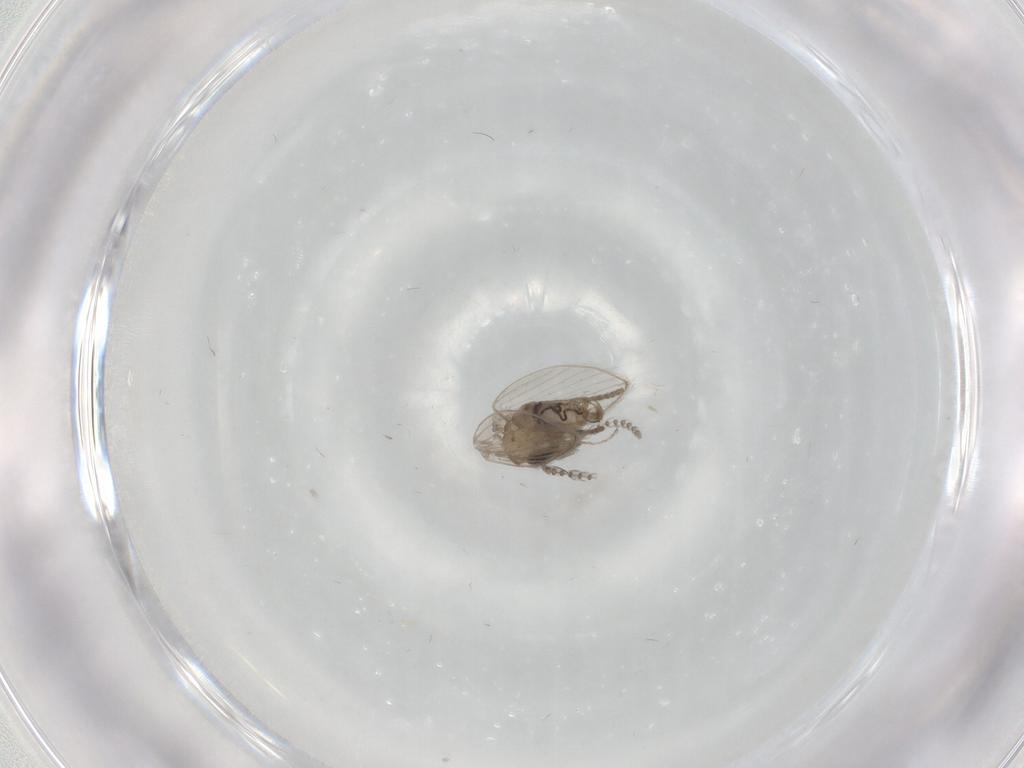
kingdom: Animalia
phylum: Arthropoda
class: Insecta
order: Diptera
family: Psychodidae
